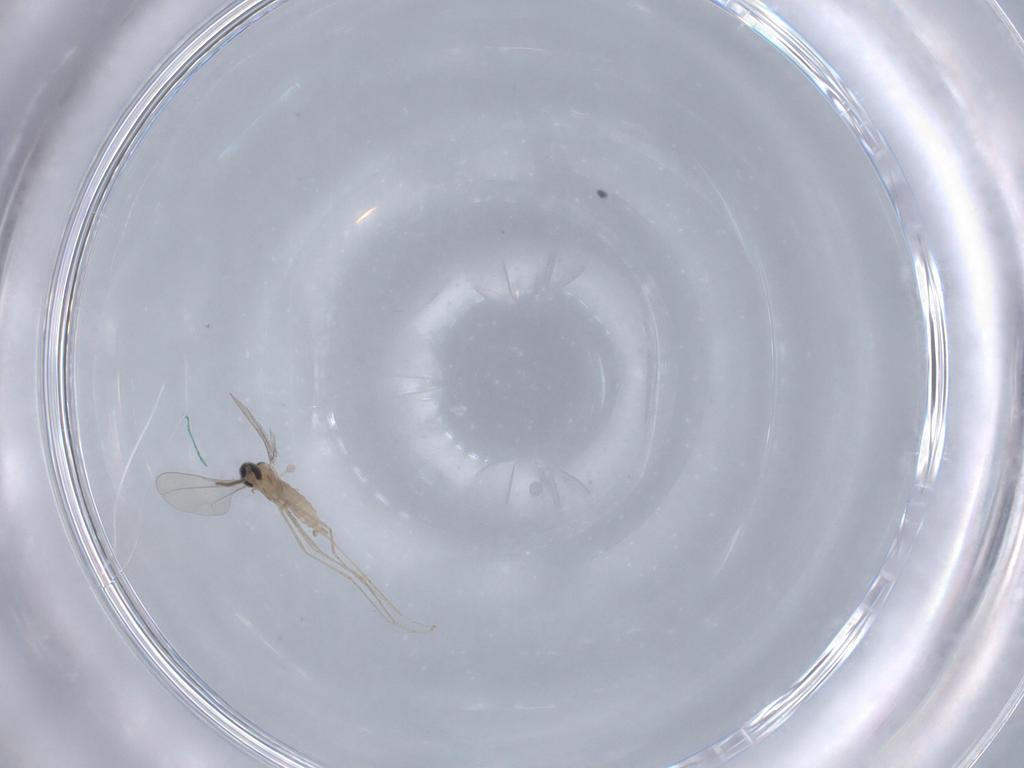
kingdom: Animalia
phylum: Arthropoda
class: Insecta
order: Diptera
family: Cecidomyiidae
